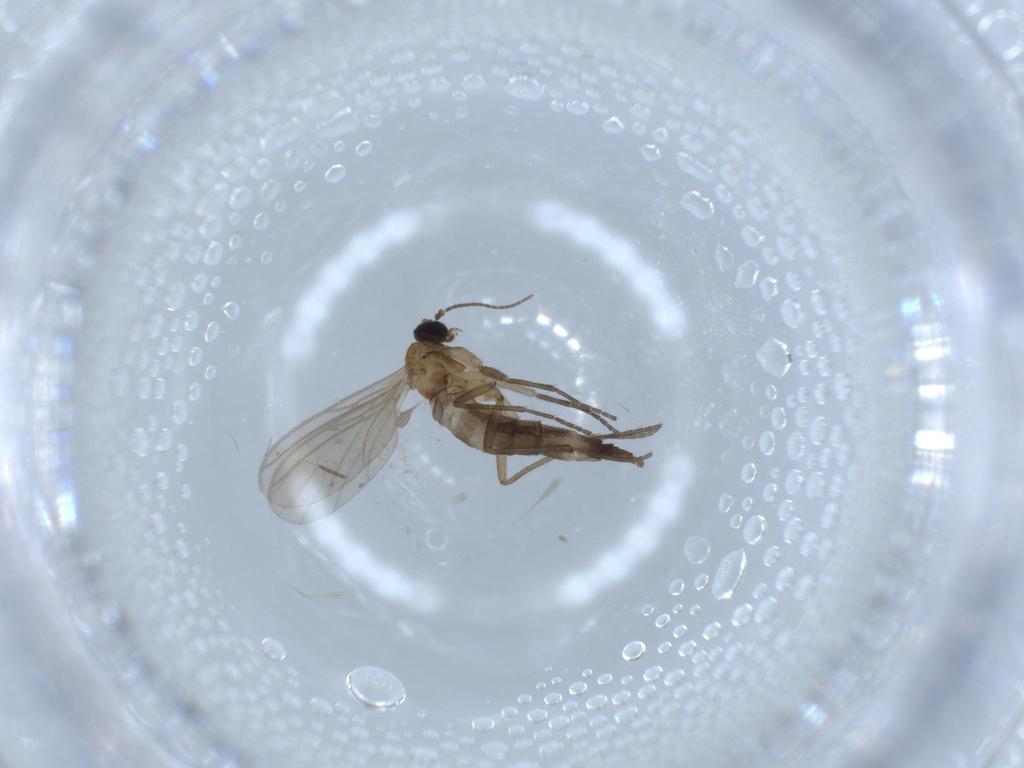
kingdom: Animalia
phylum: Arthropoda
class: Insecta
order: Diptera
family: Sciaridae
